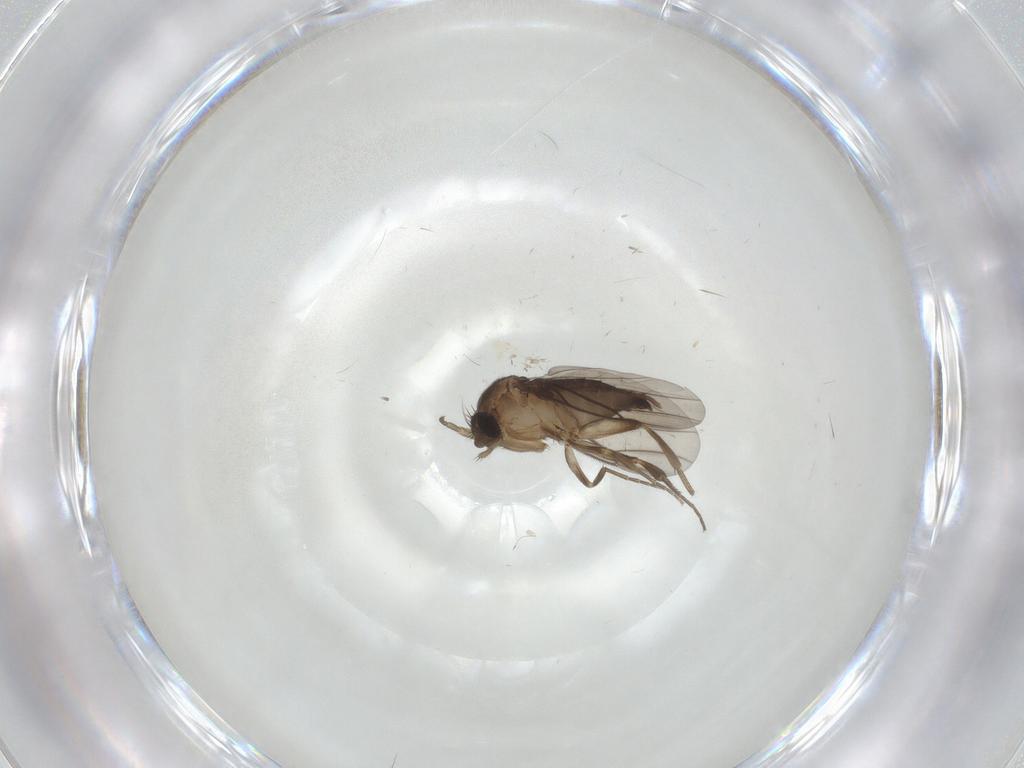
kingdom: Animalia
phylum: Arthropoda
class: Insecta
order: Diptera
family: Phoridae
